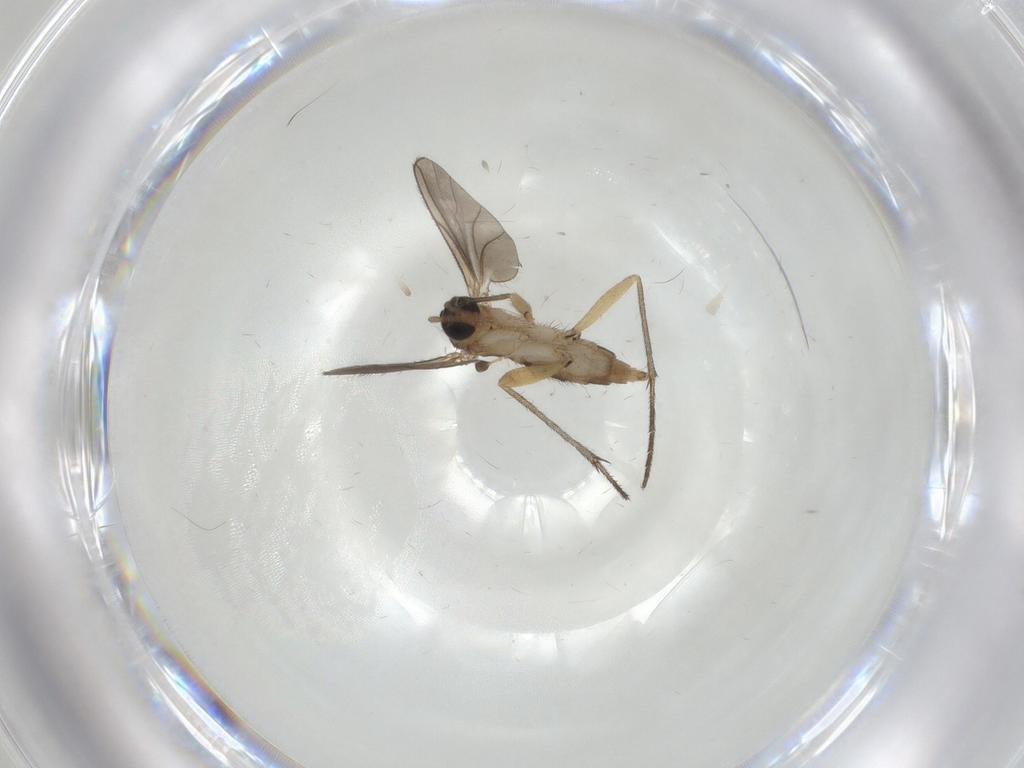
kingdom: Animalia
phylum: Arthropoda
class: Insecta
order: Diptera
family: Sciaridae
